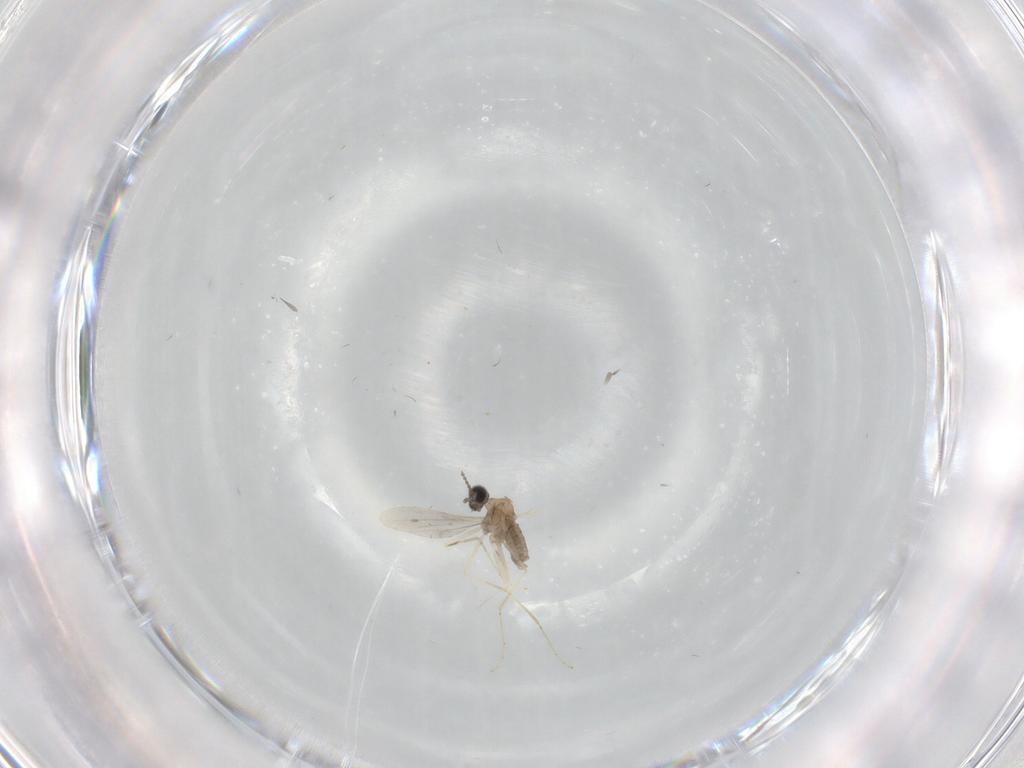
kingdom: Animalia
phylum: Arthropoda
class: Insecta
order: Diptera
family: Cecidomyiidae
